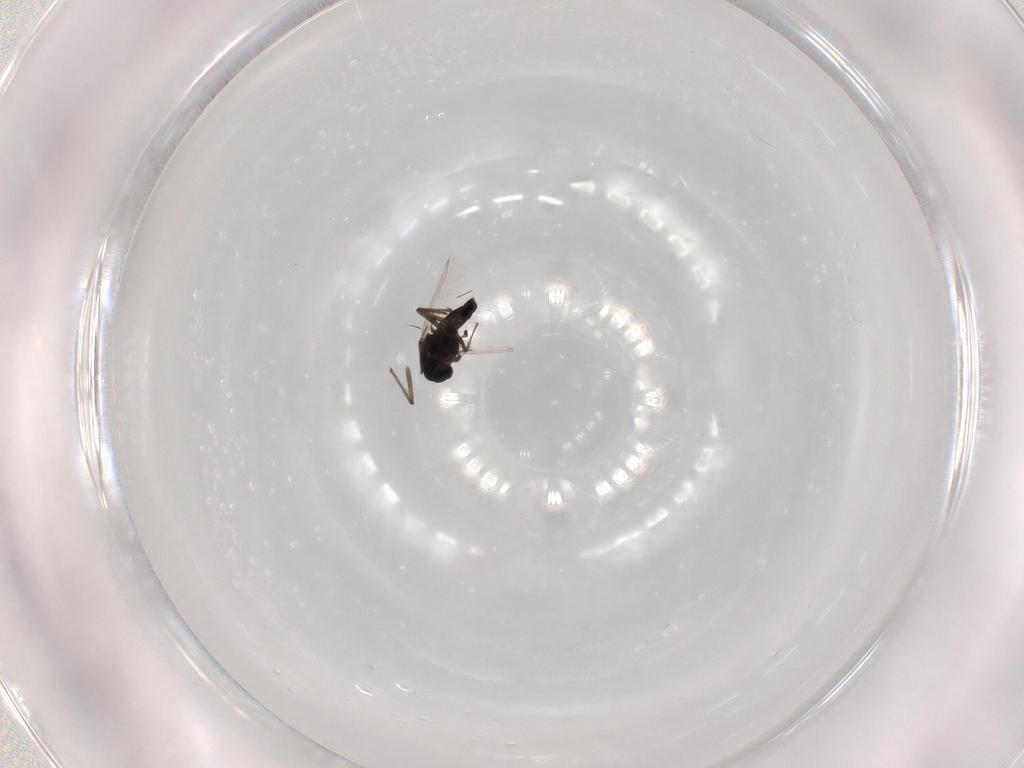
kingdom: Animalia
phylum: Arthropoda
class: Insecta
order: Diptera
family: Chironomidae
